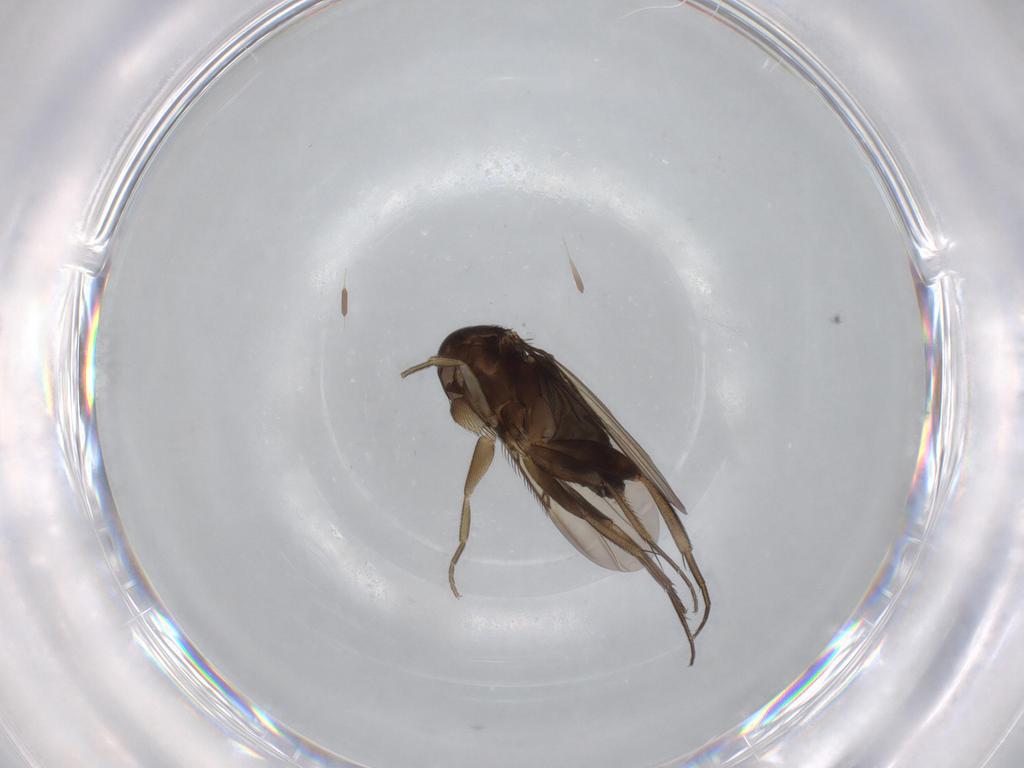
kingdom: Animalia
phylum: Arthropoda
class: Insecta
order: Diptera
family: Phoridae
